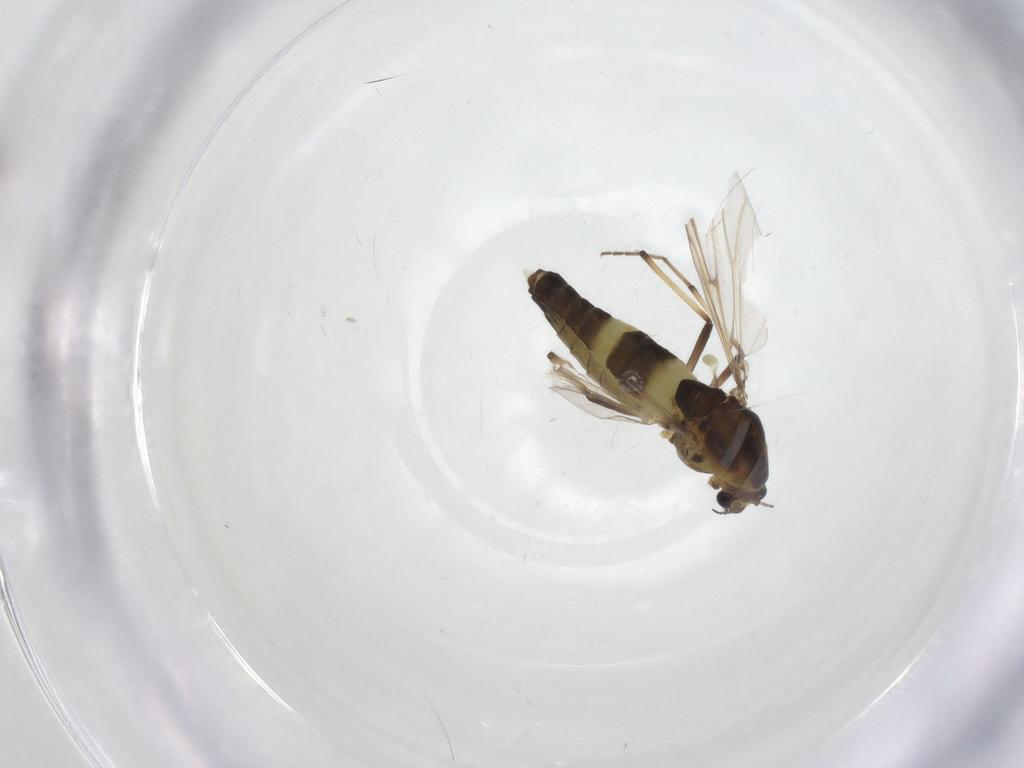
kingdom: Animalia
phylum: Arthropoda
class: Insecta
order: Diptera
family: Chironomidae
